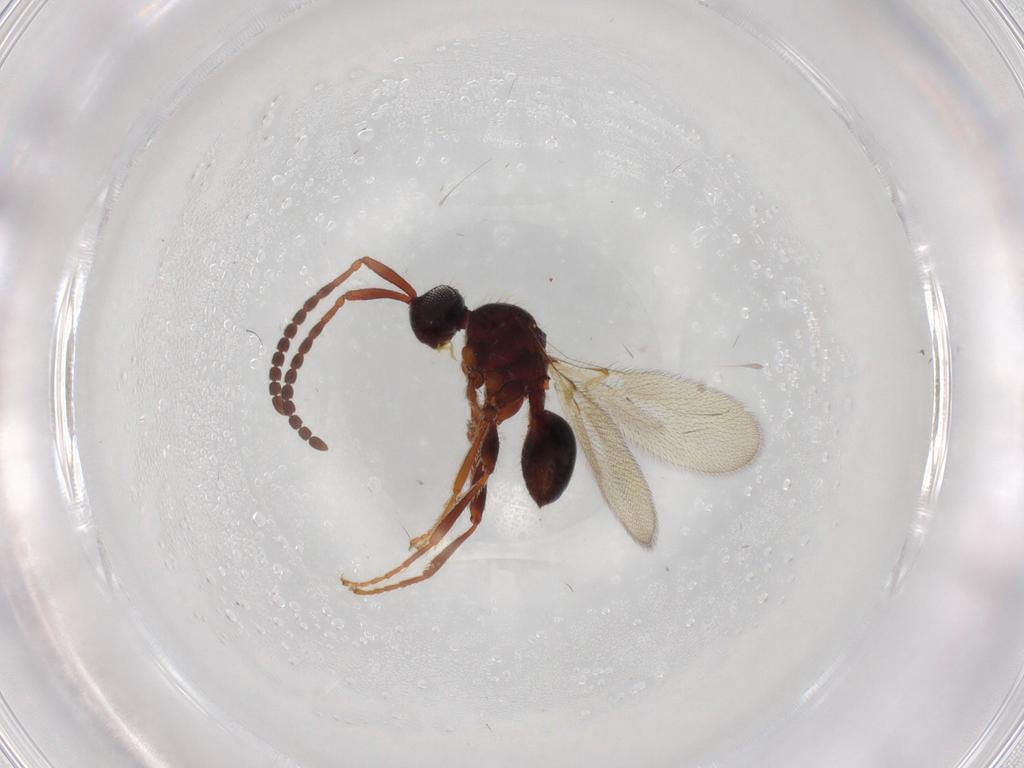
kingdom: Animalia
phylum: Arthropoda
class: Insecta
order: Hymenoptera
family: Diapriidae
